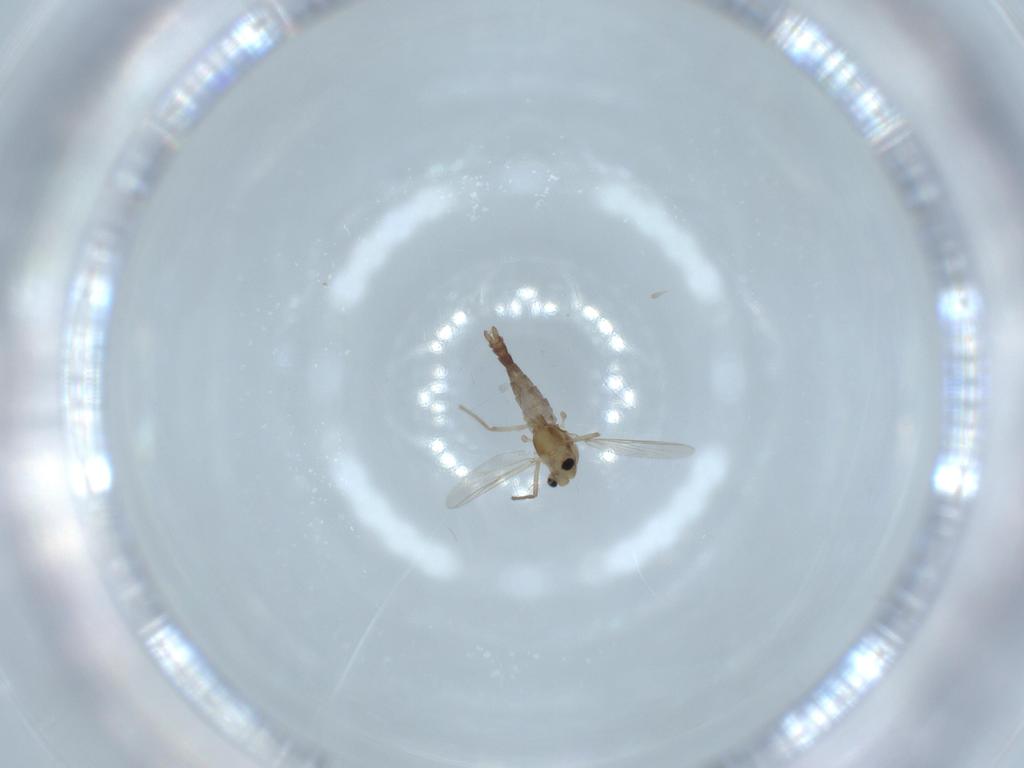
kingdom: Animalia
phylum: Arthropoda
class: Insecta
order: Diptera
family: Chironomidae
